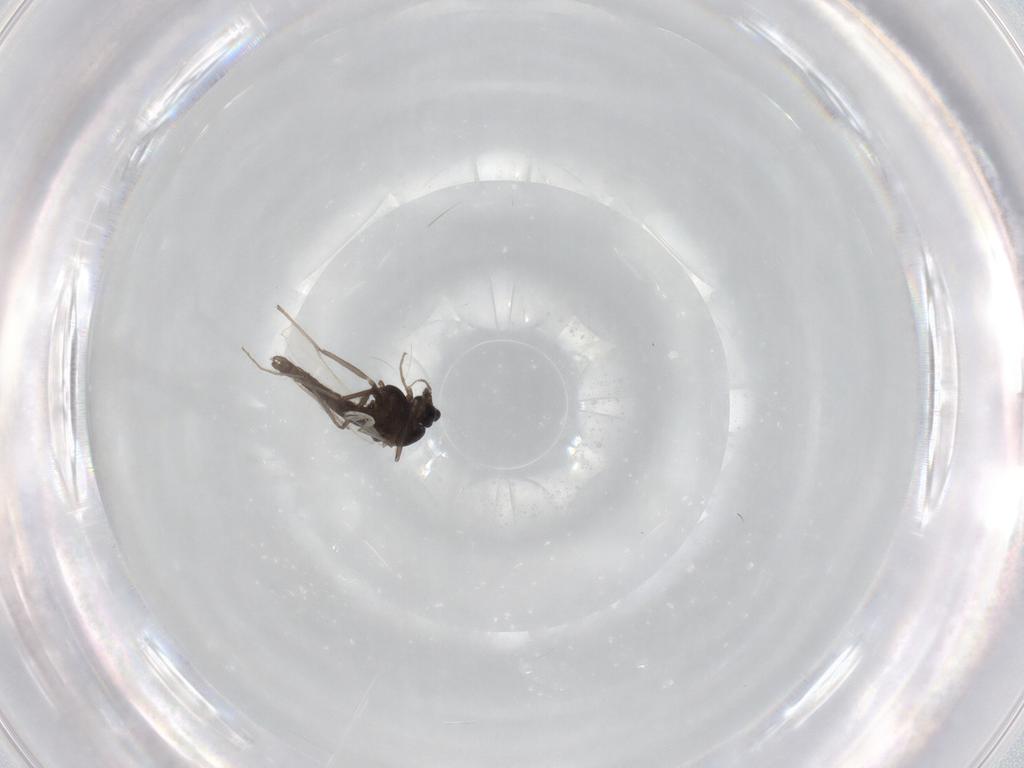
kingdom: Animalia
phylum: Arthropoda
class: Insecta
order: Diptera
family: Chironomidae
